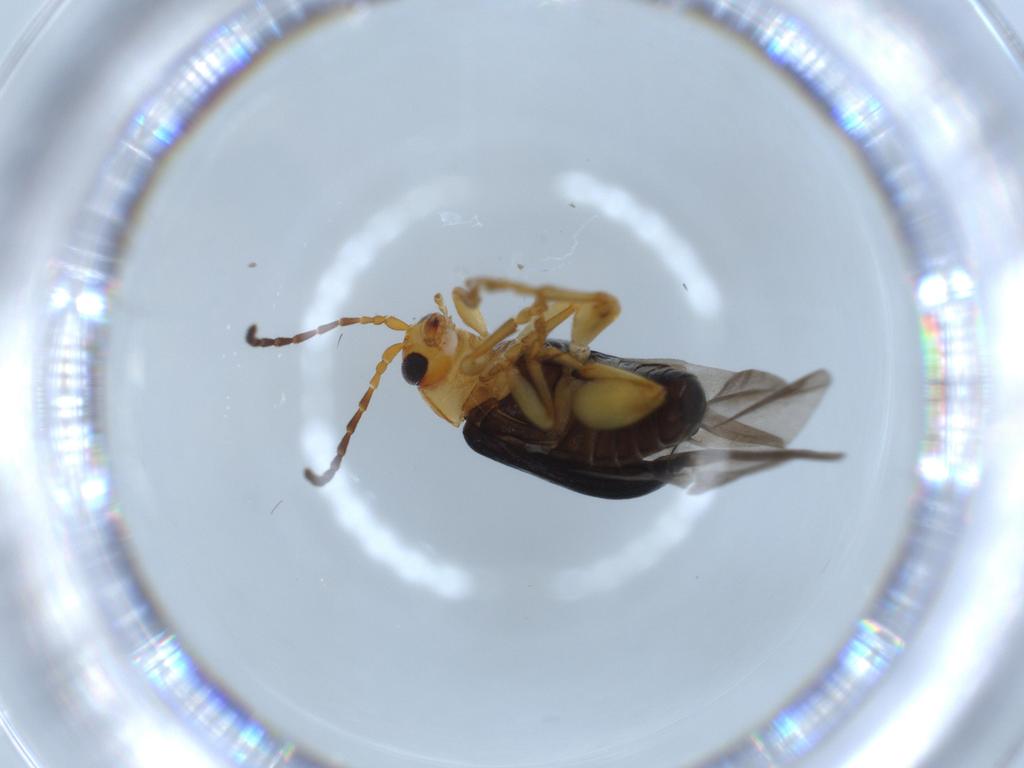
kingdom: Animalia
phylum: Arthropoda
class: Insecta
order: Coleoptera
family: Chrysomelidae
